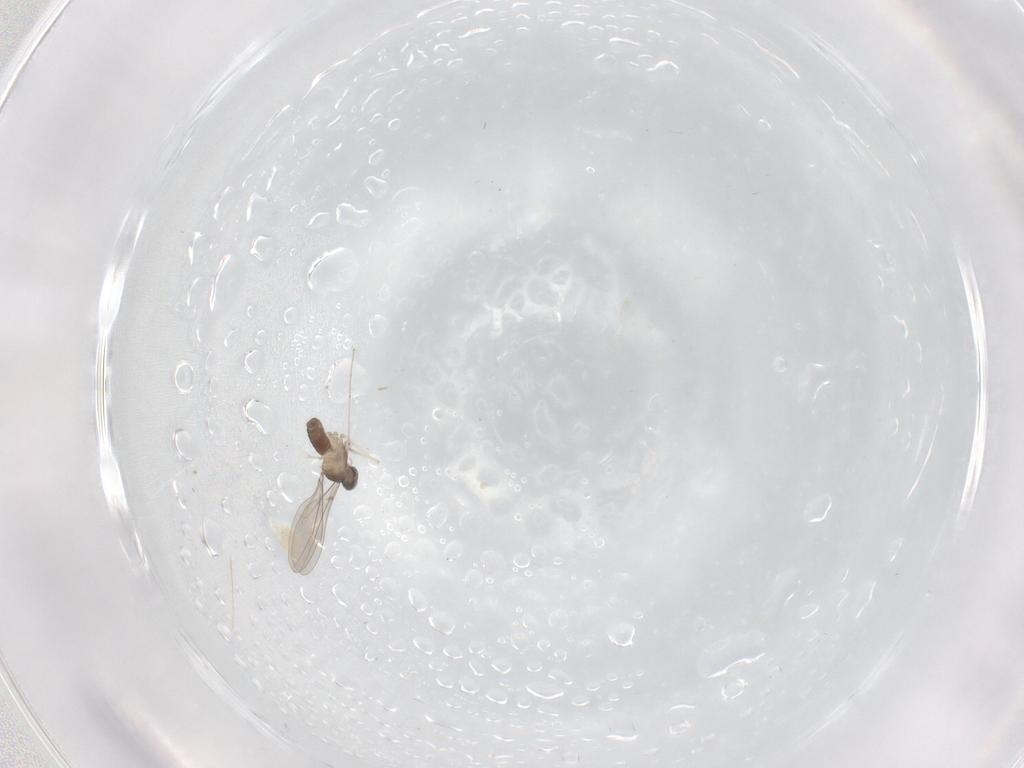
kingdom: Animalia
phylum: Arthropoda
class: Insecta
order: Diptera
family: Cecidomyiidae
